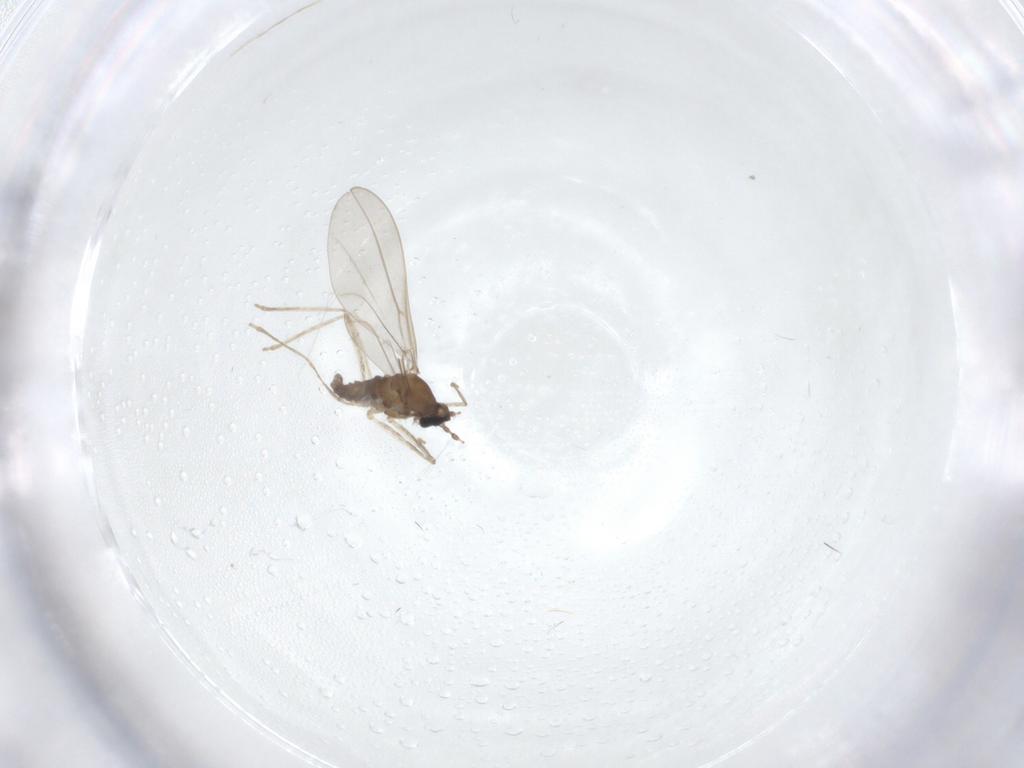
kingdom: Animalia
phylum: Arthropoda
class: Insecta
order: Diptera
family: Cecidomyiidae
